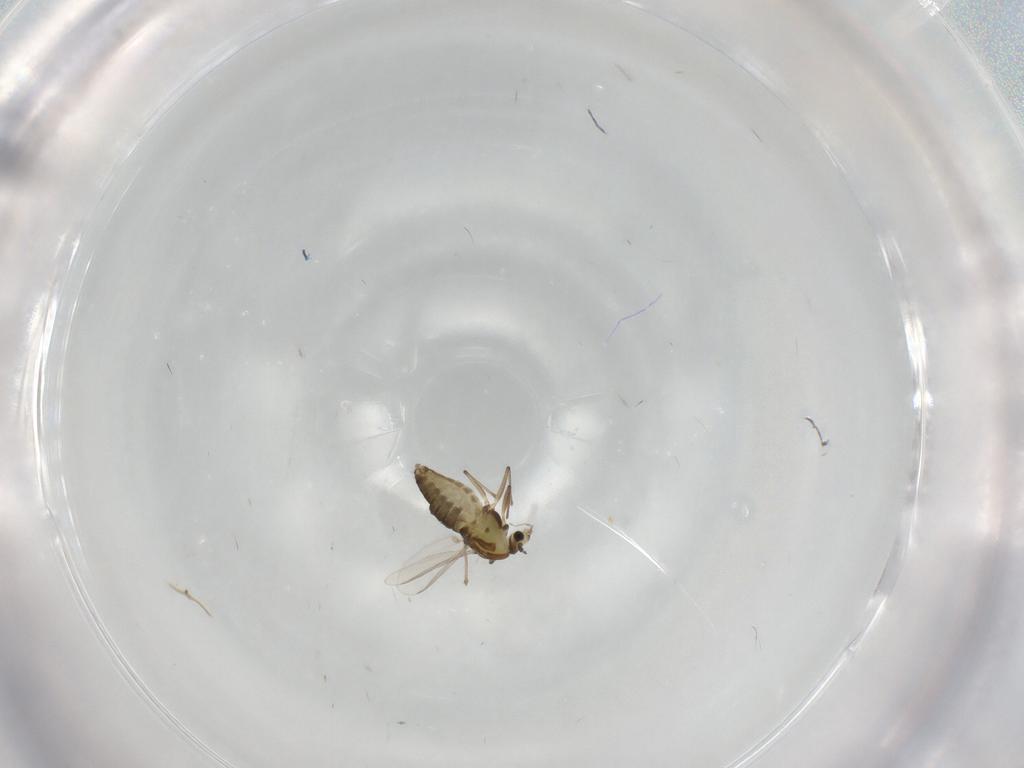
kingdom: Animalia
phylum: Arthropoda
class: Insecta
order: Diptera
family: Chironomidae
